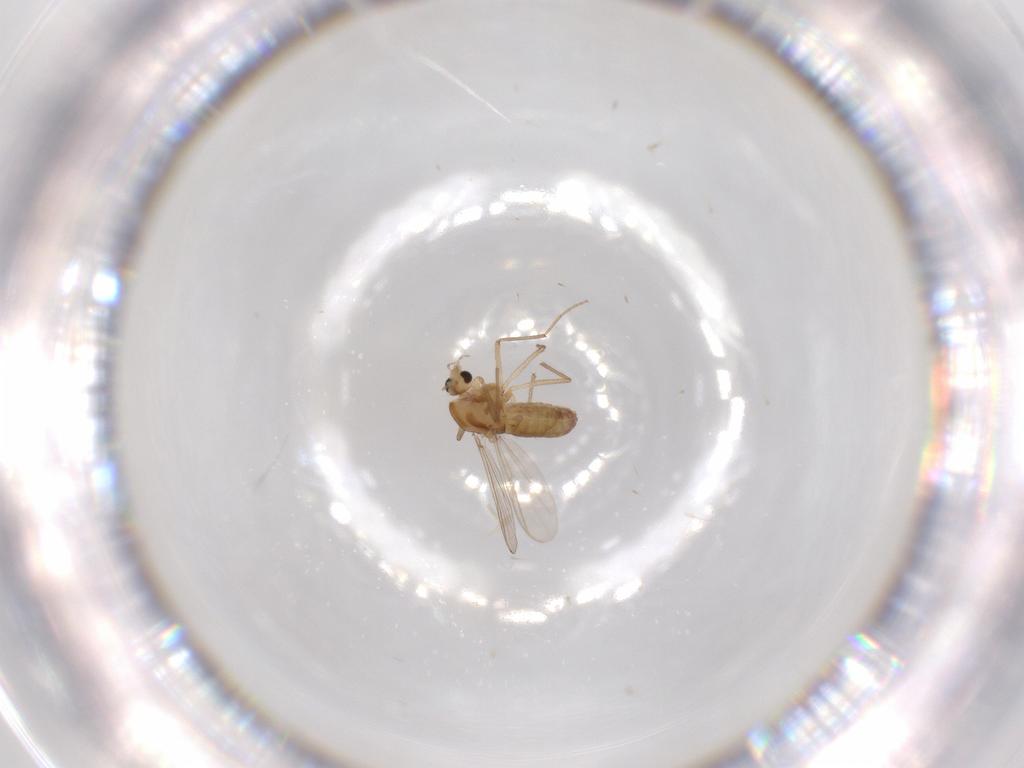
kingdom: Animalia
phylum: Arthropoda
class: Insecta
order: Diptera
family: Chironomidae
